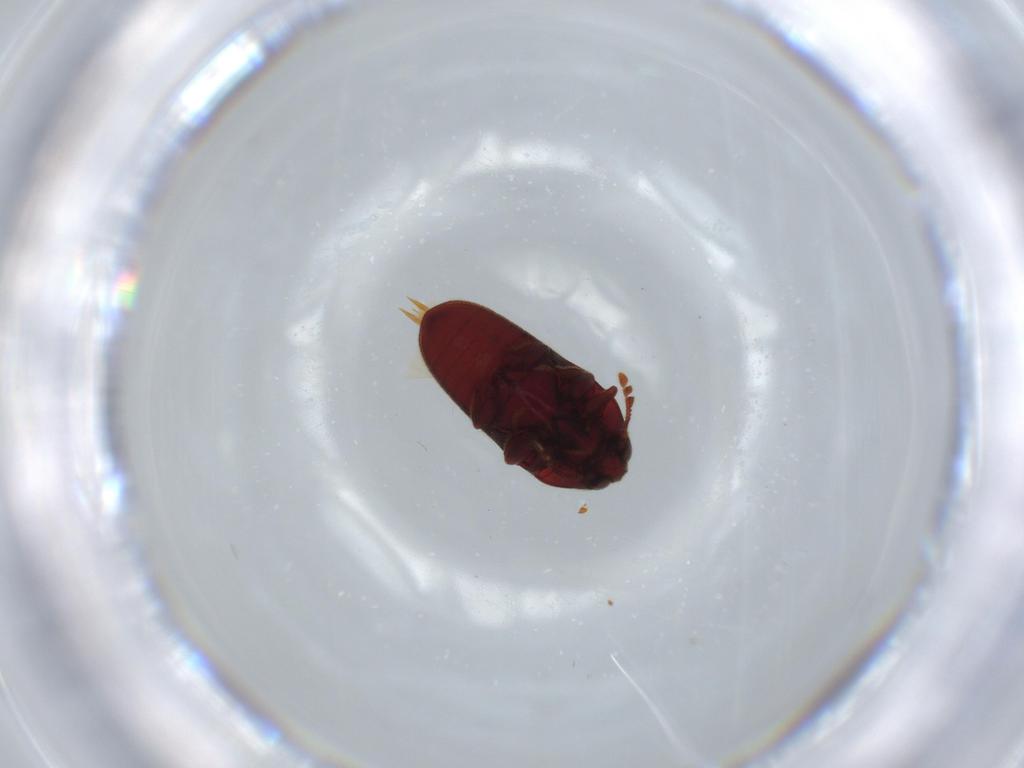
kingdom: Animalia
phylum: Arthropoda
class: Insecta
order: Coleoptera
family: Throscidae
